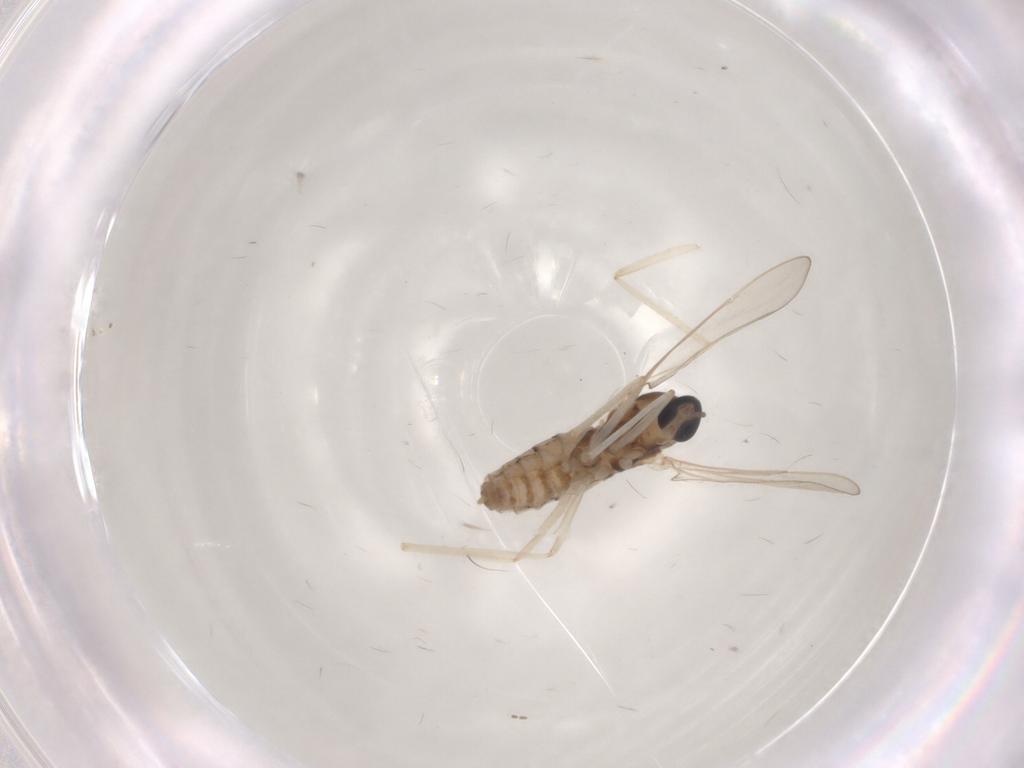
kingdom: Animalia
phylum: Arthropoda
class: Insecta
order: Diptera
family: Cecidomyiidae
